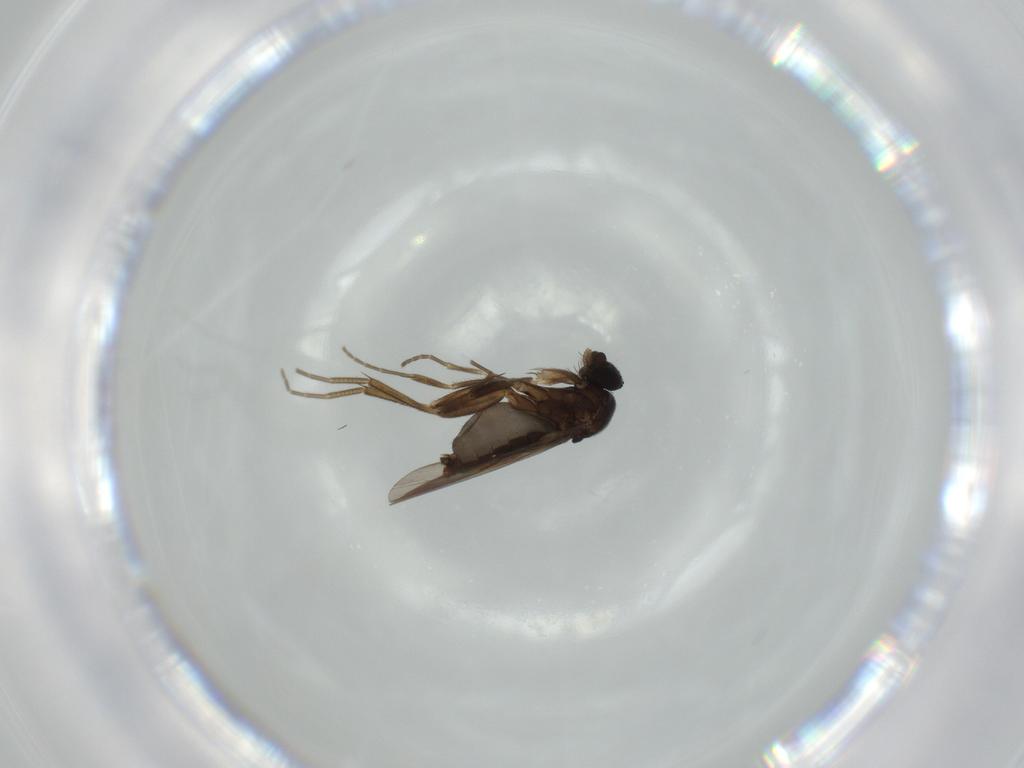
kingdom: Animalia
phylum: Arthropoda
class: Insecta
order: Diptera
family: Phoridae
